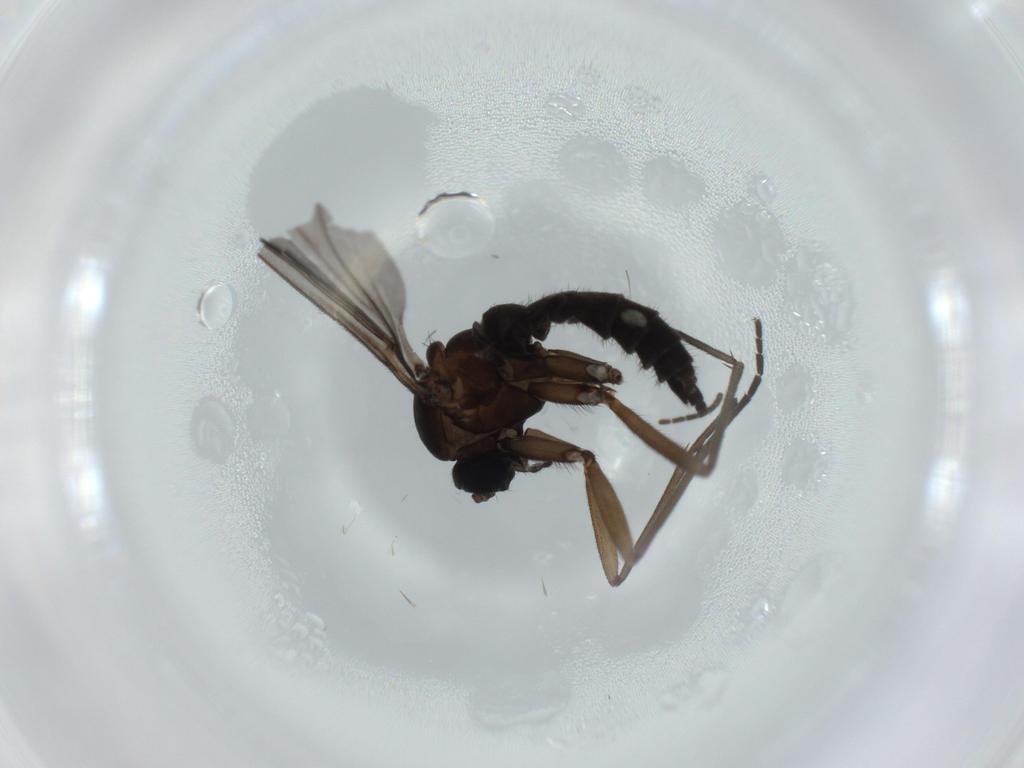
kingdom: Animalia
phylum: Arthropoda
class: Insecta
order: Diptera
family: Sciaridae
